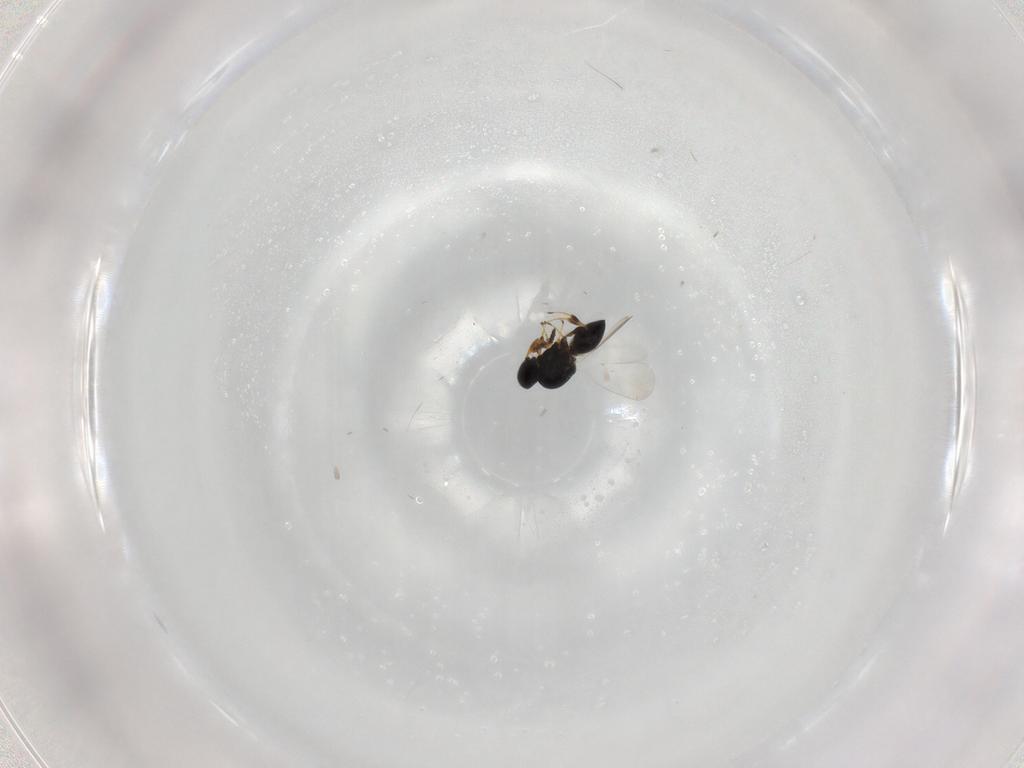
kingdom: Animalia
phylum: Arthropoda
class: Insecta
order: Hymenoptera
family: Platygastridae
